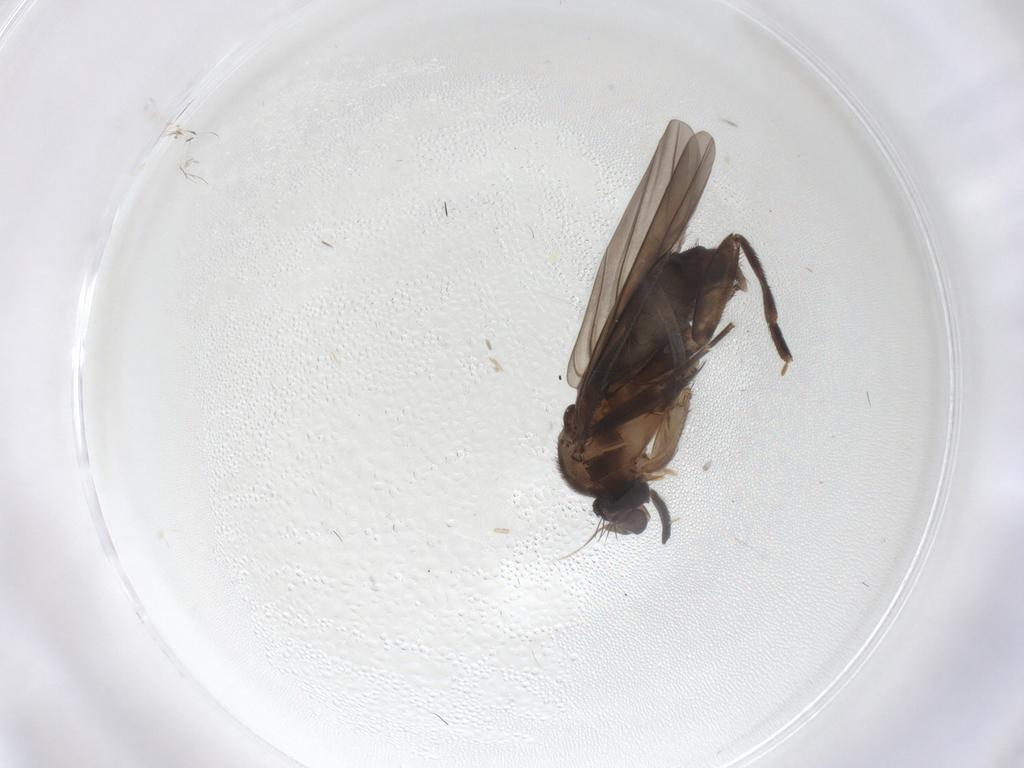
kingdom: Animalia
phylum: Arthropoda
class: Insecta
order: Diptera
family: Phoridae
